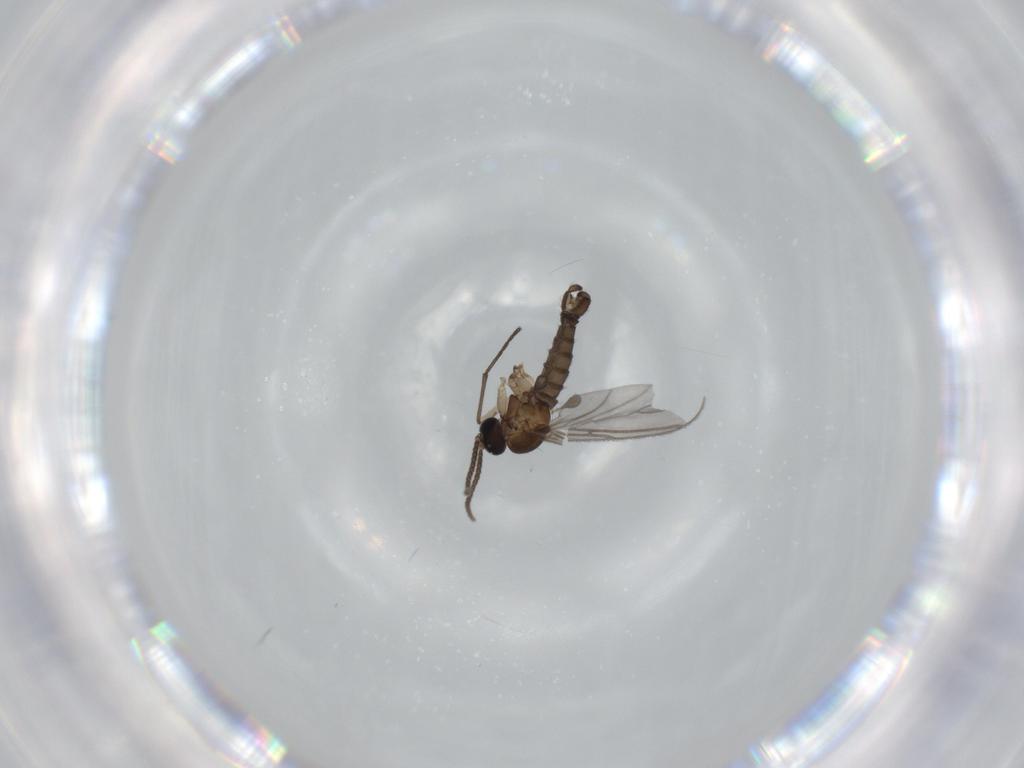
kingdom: Animalia
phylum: Arthropoda
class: Insecta
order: Diptera
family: Sciaridae
